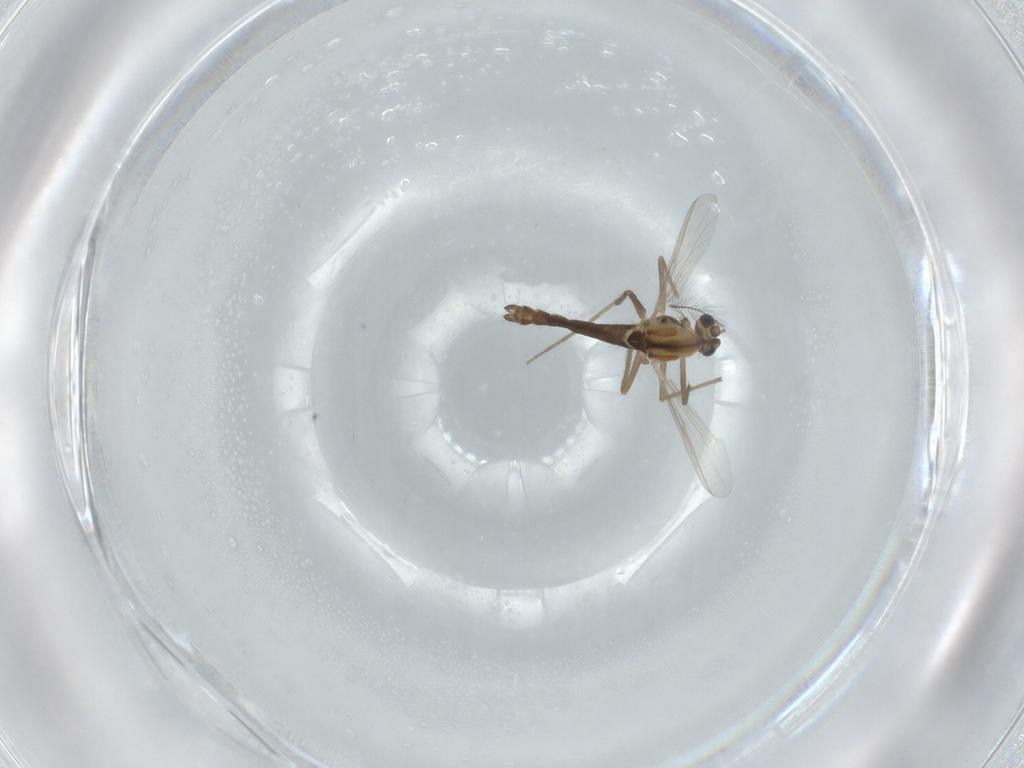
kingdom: Animalia
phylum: Arthropoda
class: Insecta
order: Diptera
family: Chironomidae
